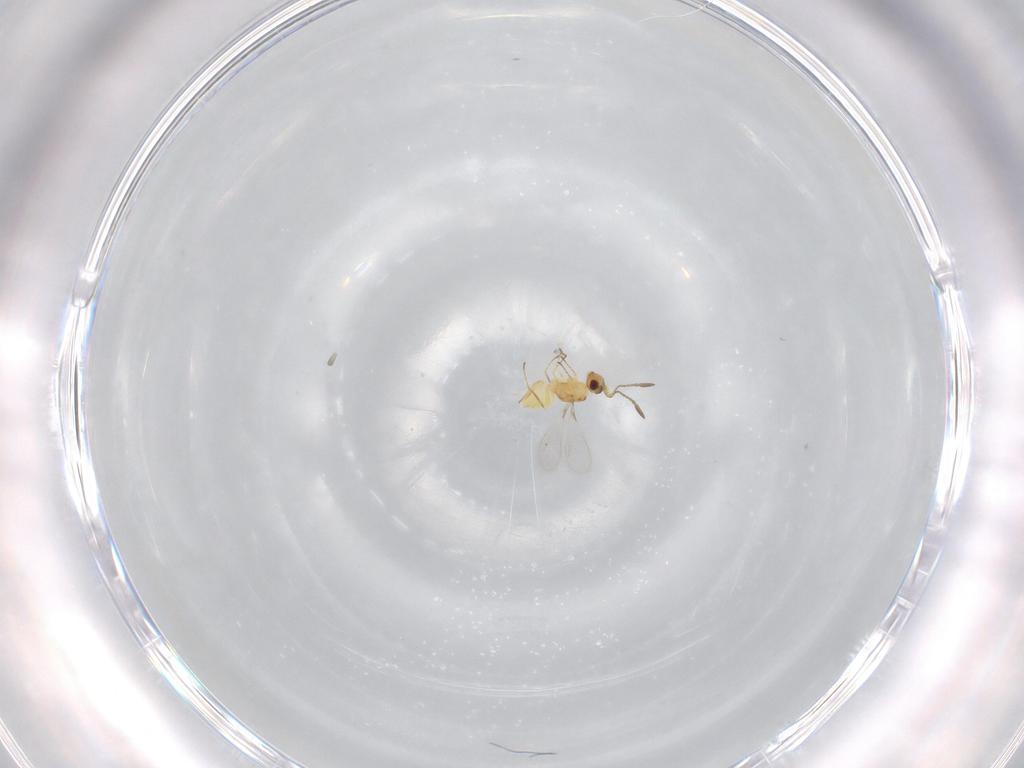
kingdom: Animalia
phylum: Arthropoda
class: Insecta
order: Hymenoptera
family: Mymaridae
